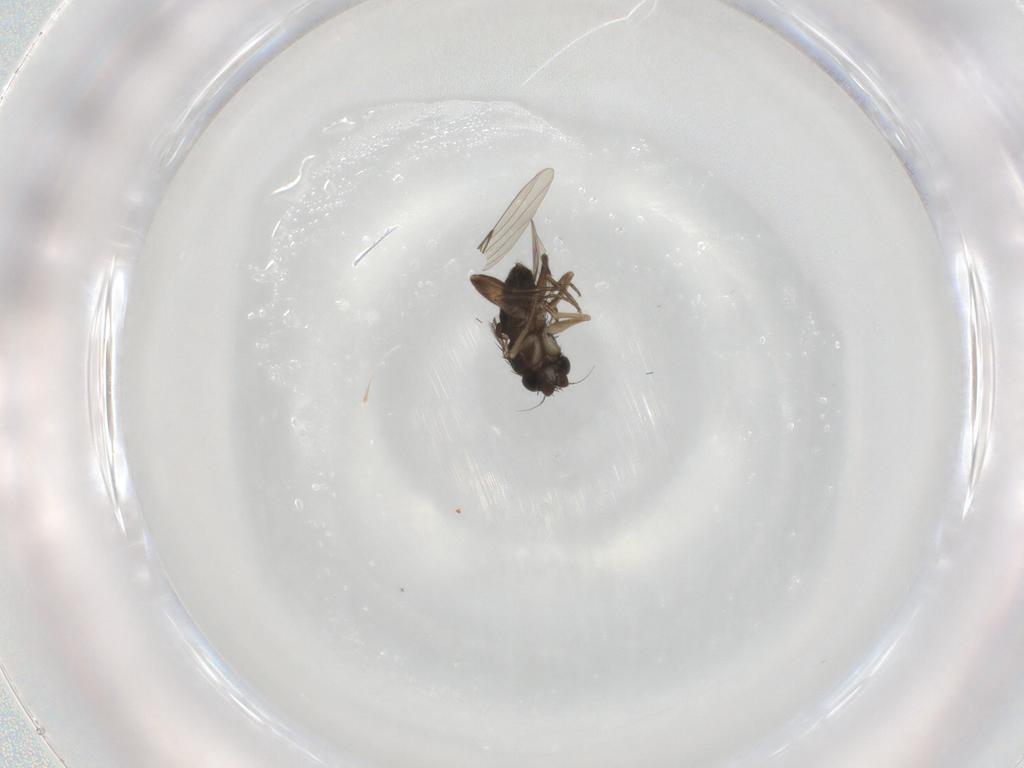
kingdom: Animalia
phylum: Arthropoda
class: Insecta
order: Diptera
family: Phoridae
